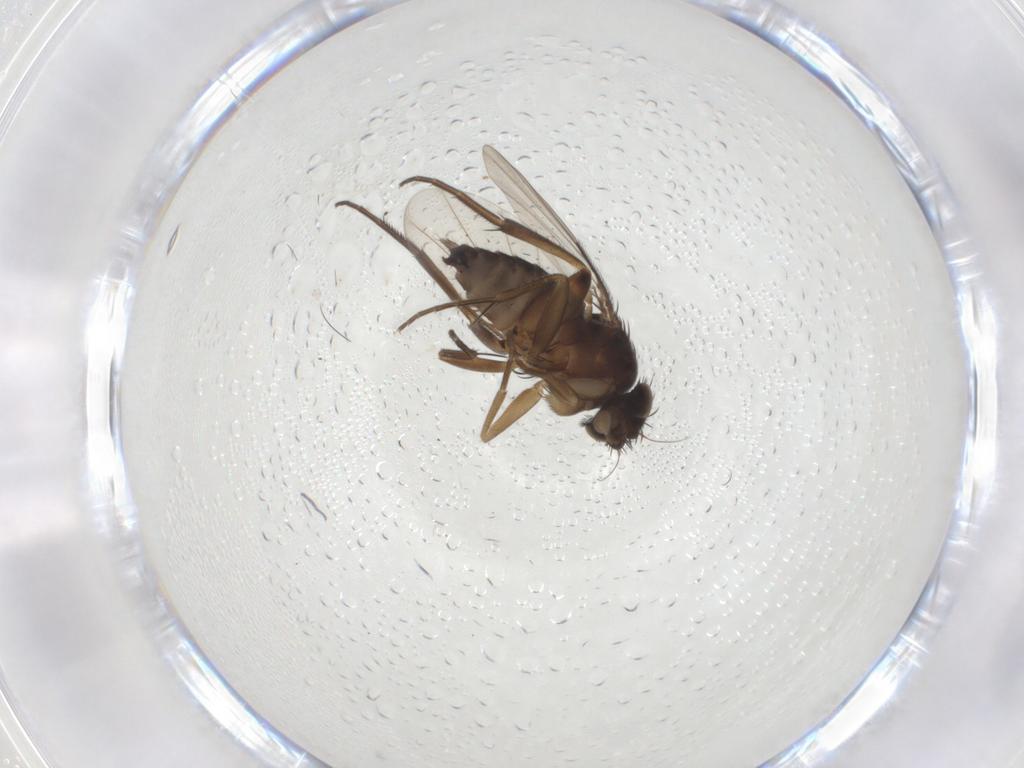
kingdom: Animalia
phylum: Arthropoda
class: Insecta
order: Diptera
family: Phoridae
